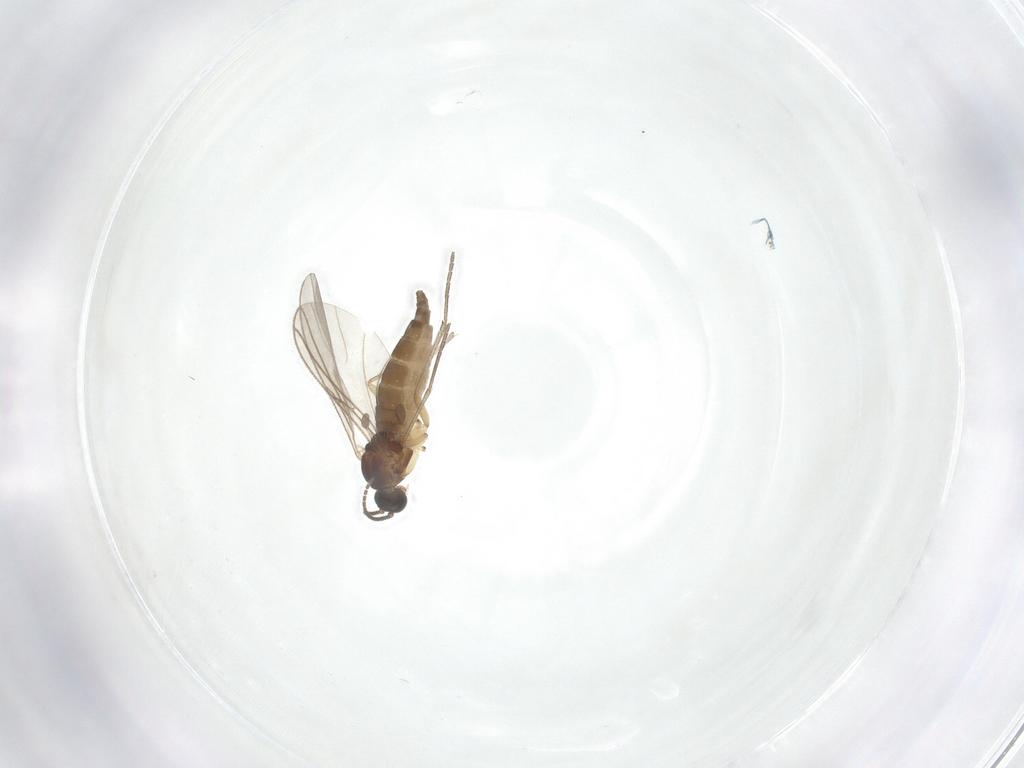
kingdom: Animalia
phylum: Arthropoda
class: Insecta
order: Diptera
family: Sciaridae
